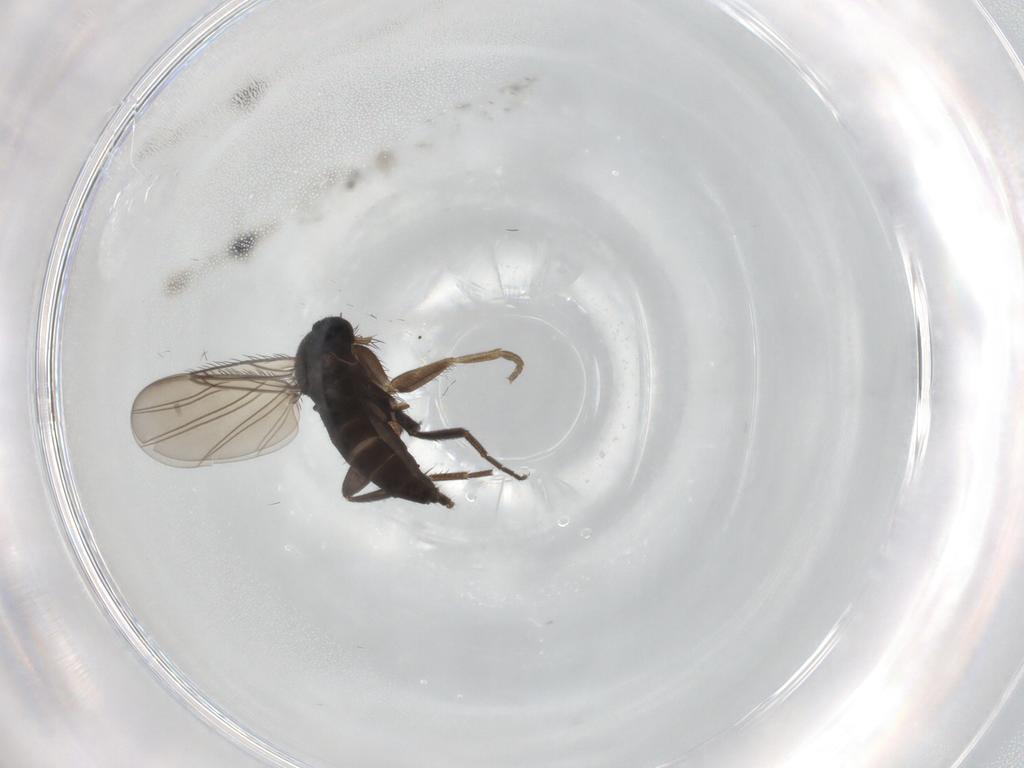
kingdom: Animalia
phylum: Arthropoda
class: Insecta
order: Diptera
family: Phoridae
